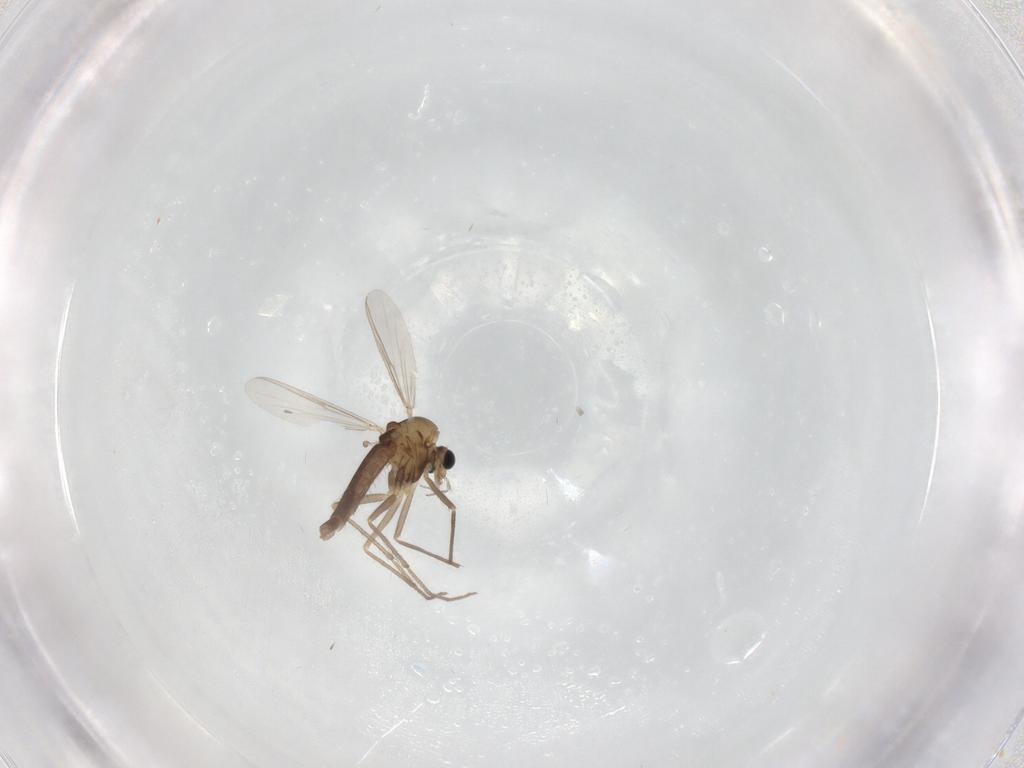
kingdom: Animalia
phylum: Arthropoda
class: Insecta
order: Diptera
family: Chironomidae
